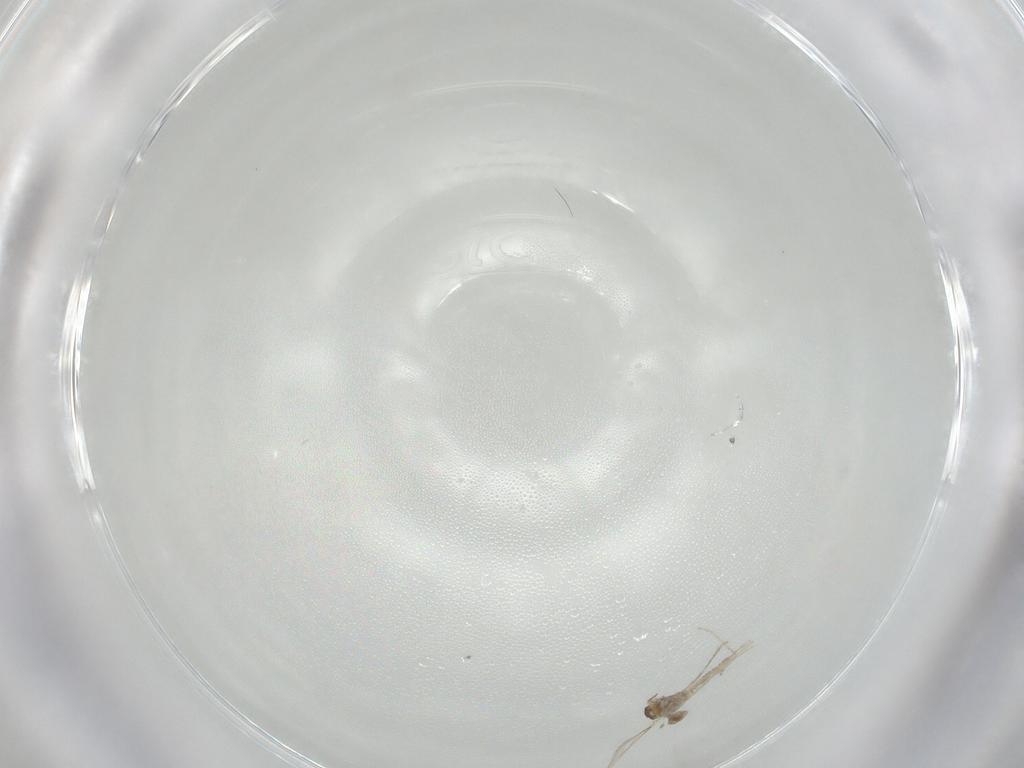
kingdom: Animalia
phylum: Arthropoda
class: Insecta
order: Diptera
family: Cecidomyiidae
